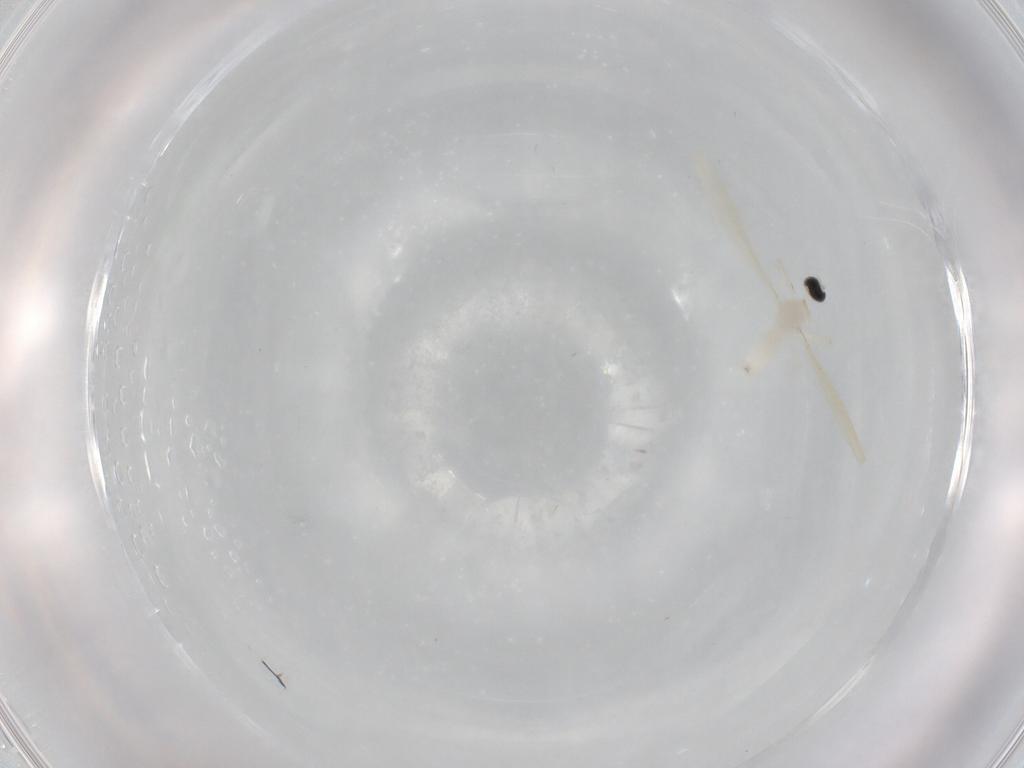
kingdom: Animalia
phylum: Arthropoda
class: Insecta
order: Diptera
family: Cecidomyiidae
